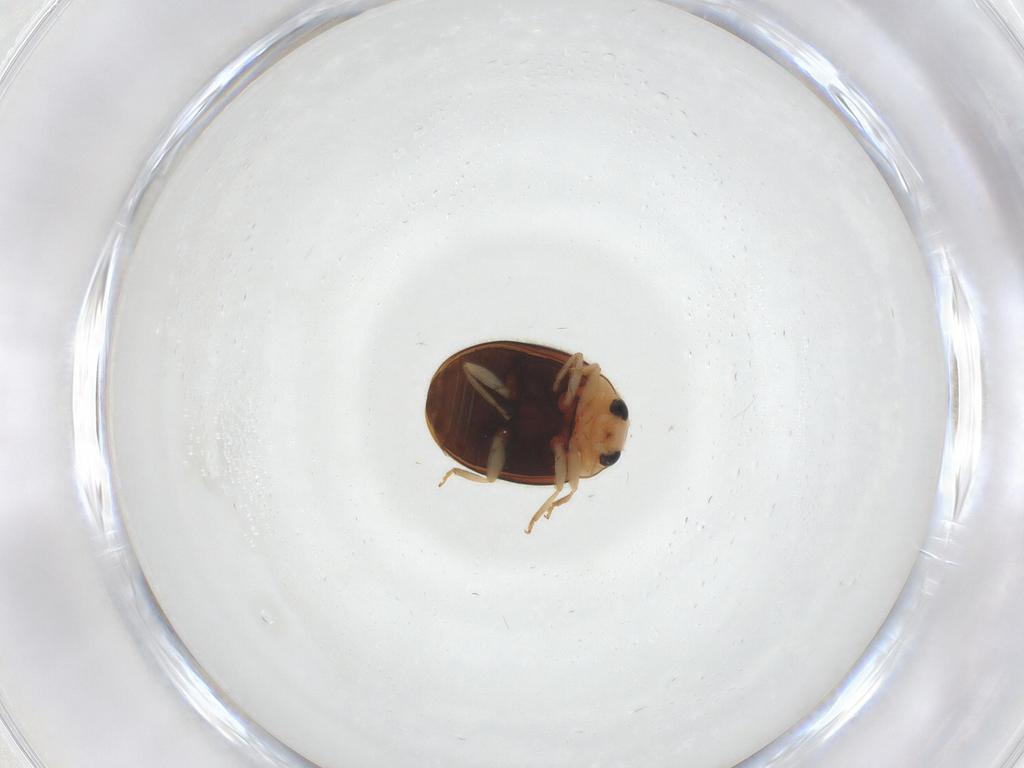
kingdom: Animalia
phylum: Arthropoda
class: Insecta
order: Coleoptera
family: Coccinellidae
